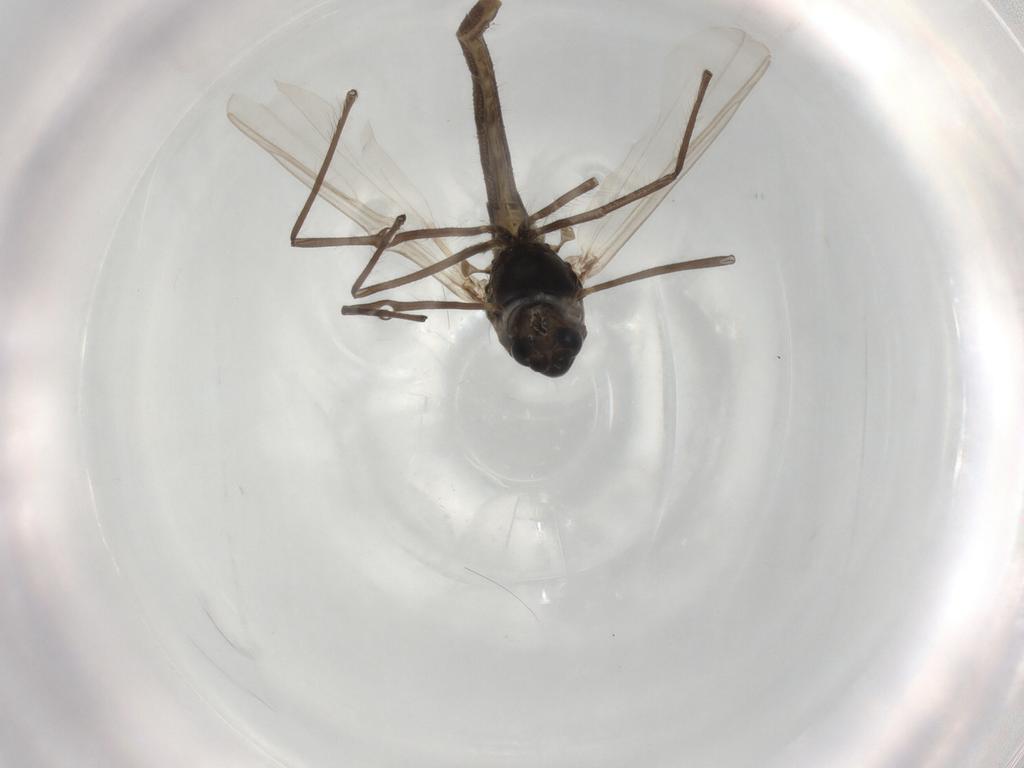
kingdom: Animalia
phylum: Arthropoda
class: Insecta
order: Diptera
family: Chironomidae
